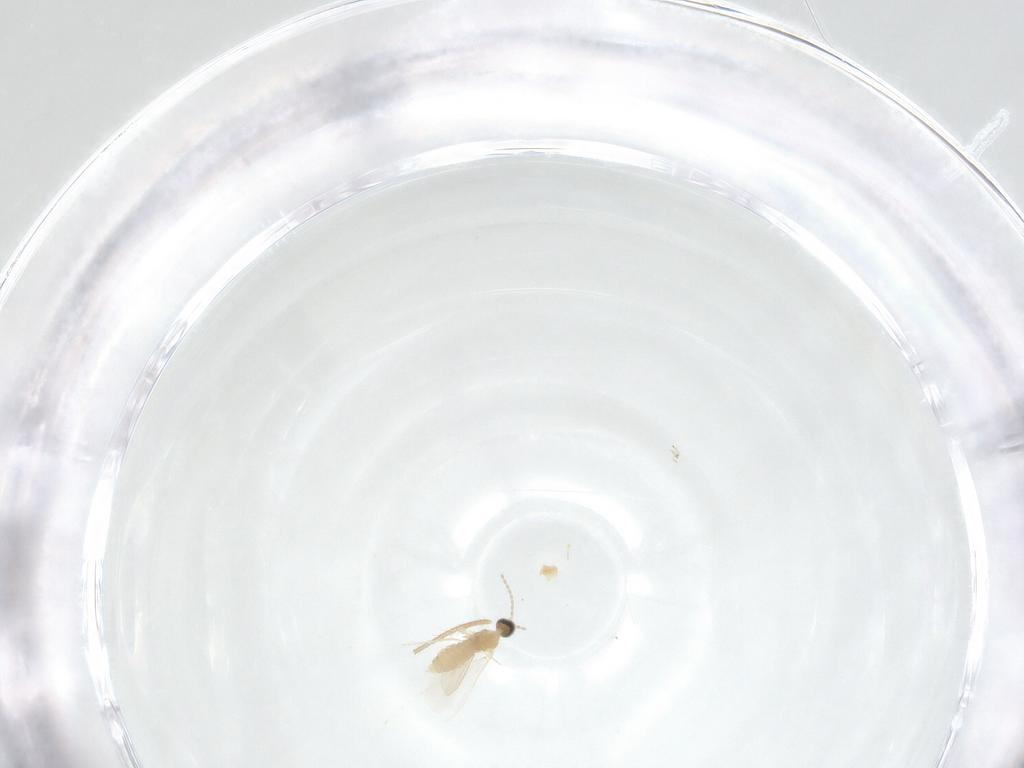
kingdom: Animalia
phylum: Arthropoda
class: Insecta
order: Diptera
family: Cecidomyiidae
